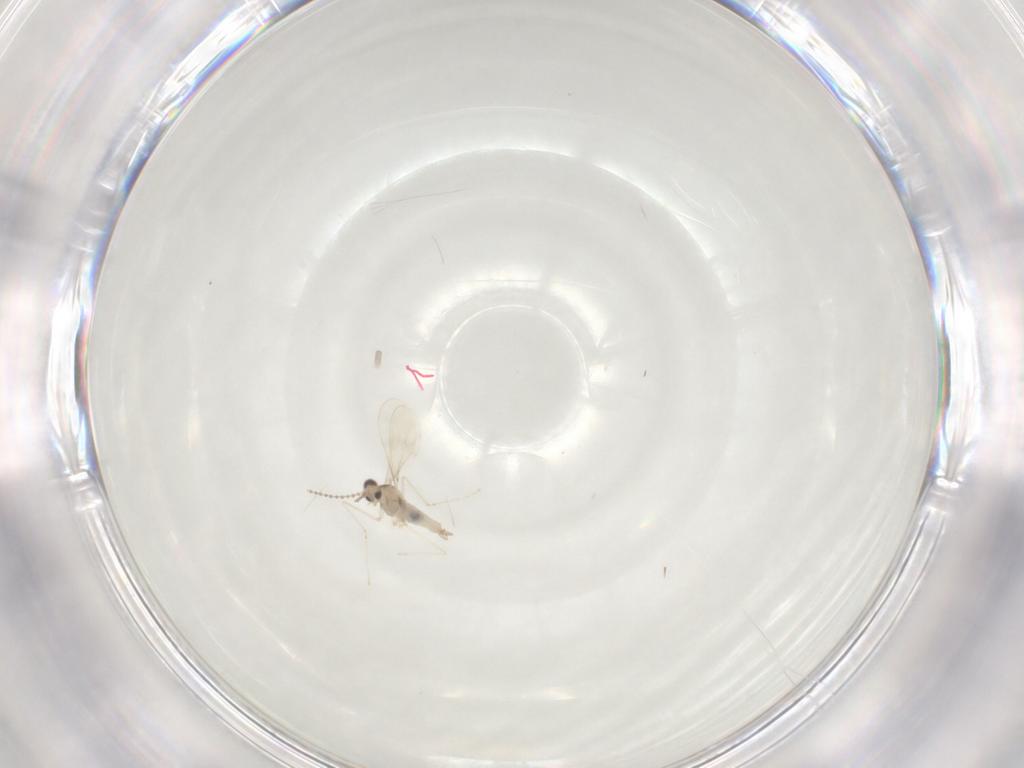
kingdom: Animalia
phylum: Arthropoda
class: Insecta
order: Diptera
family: Cecidomyiidae
